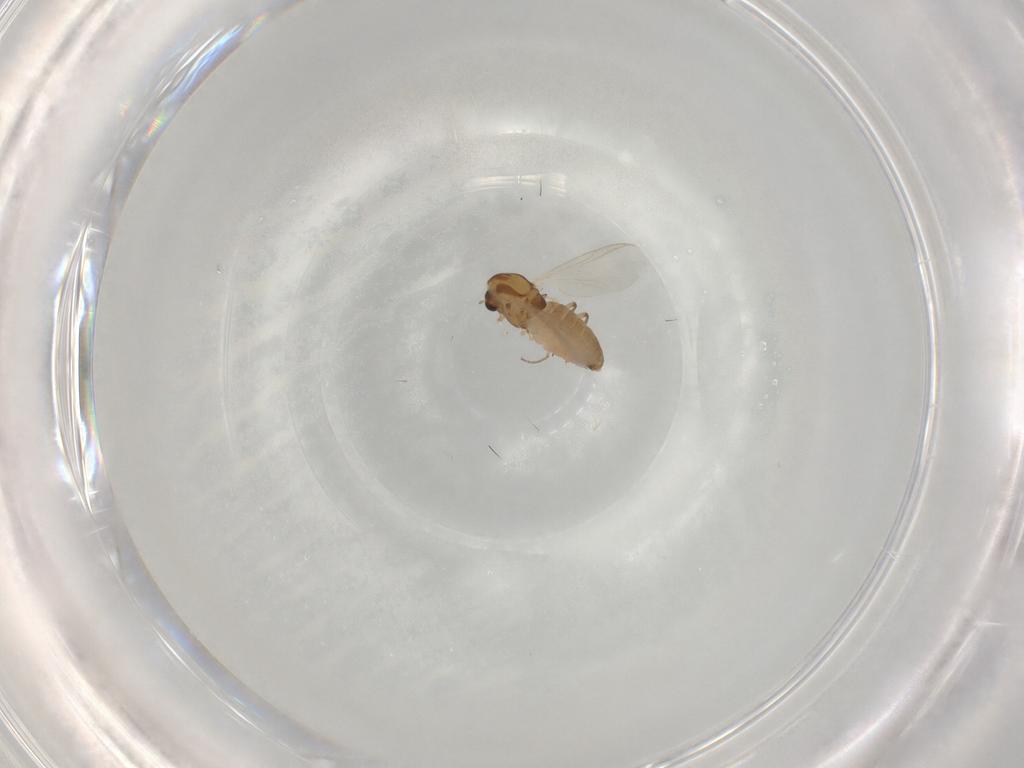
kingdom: Animalia
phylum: Arthropoda
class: Insecta
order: Diptera
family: Chironomidae
